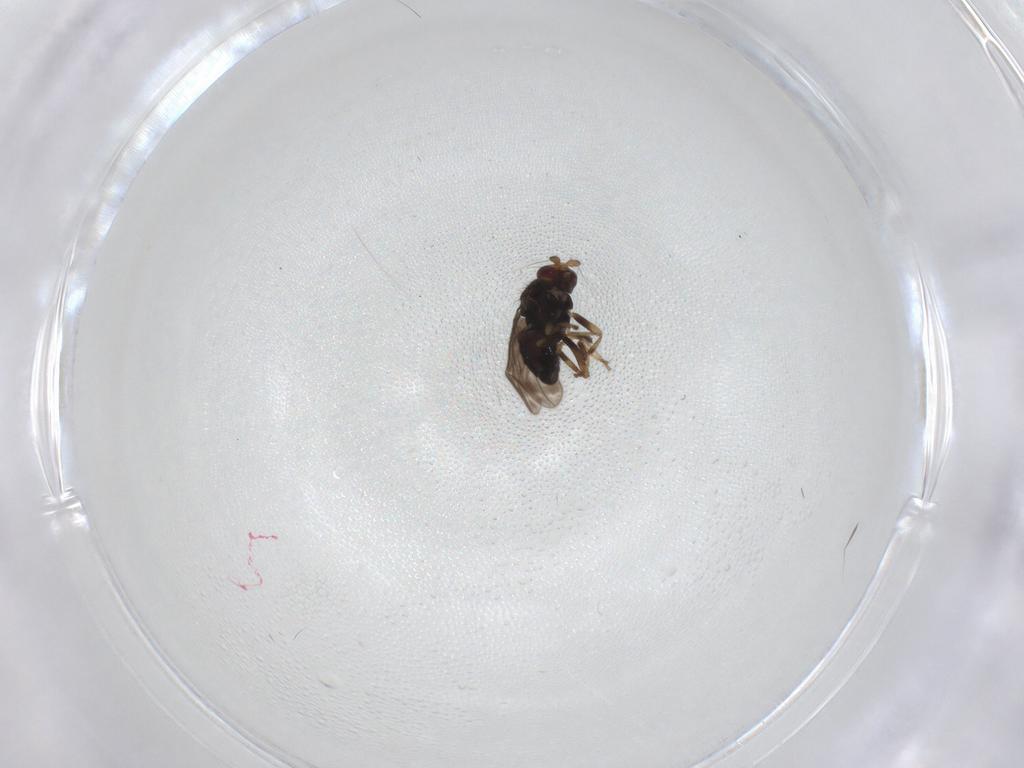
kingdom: Animalia
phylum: Arthropoda
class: Insecta
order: Diptera
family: Sphaeroceridae
